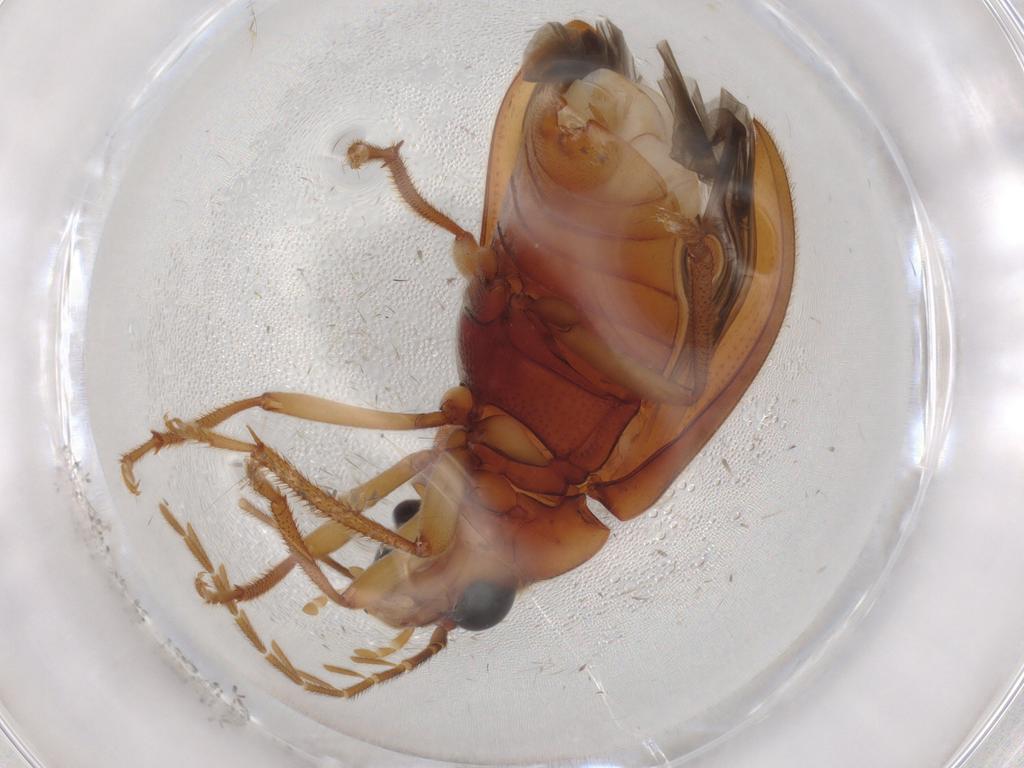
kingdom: Animalia
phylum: Arthropoda
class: Insecta
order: Coleoptera
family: Ptilodactylidae
